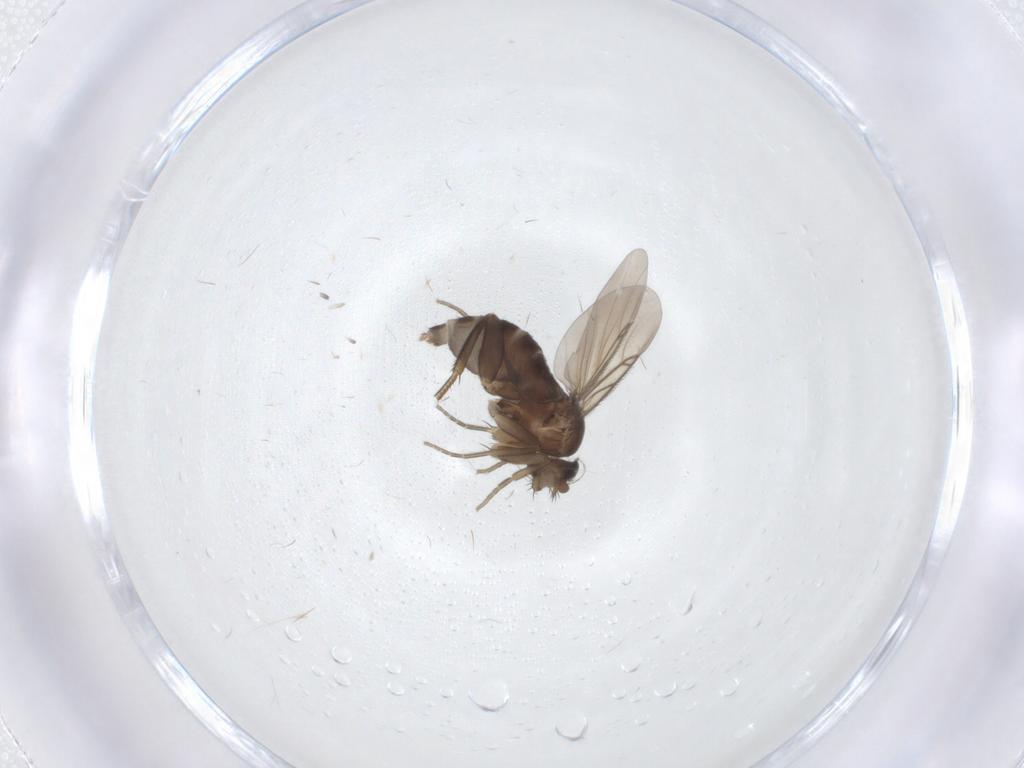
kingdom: Animalia
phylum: Arthropoda
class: Insecta
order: Diptera
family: Phoridae
